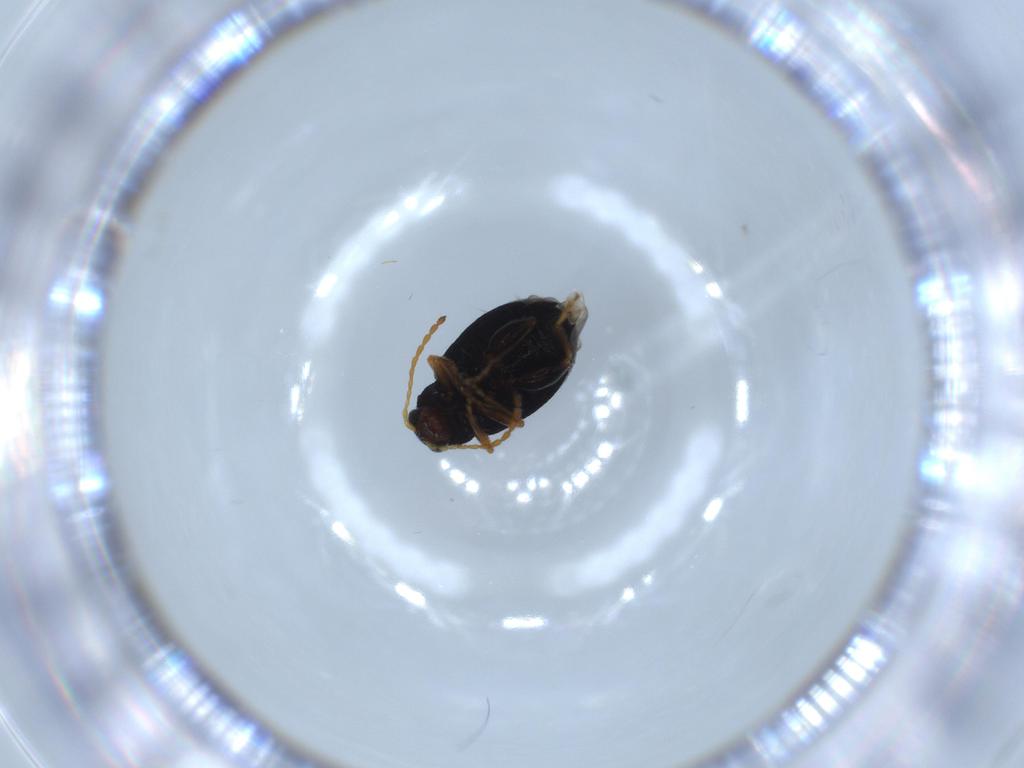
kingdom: Animalia
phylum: Arthropoda
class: Insecta
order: Coleoptera
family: Chrysomelidae
